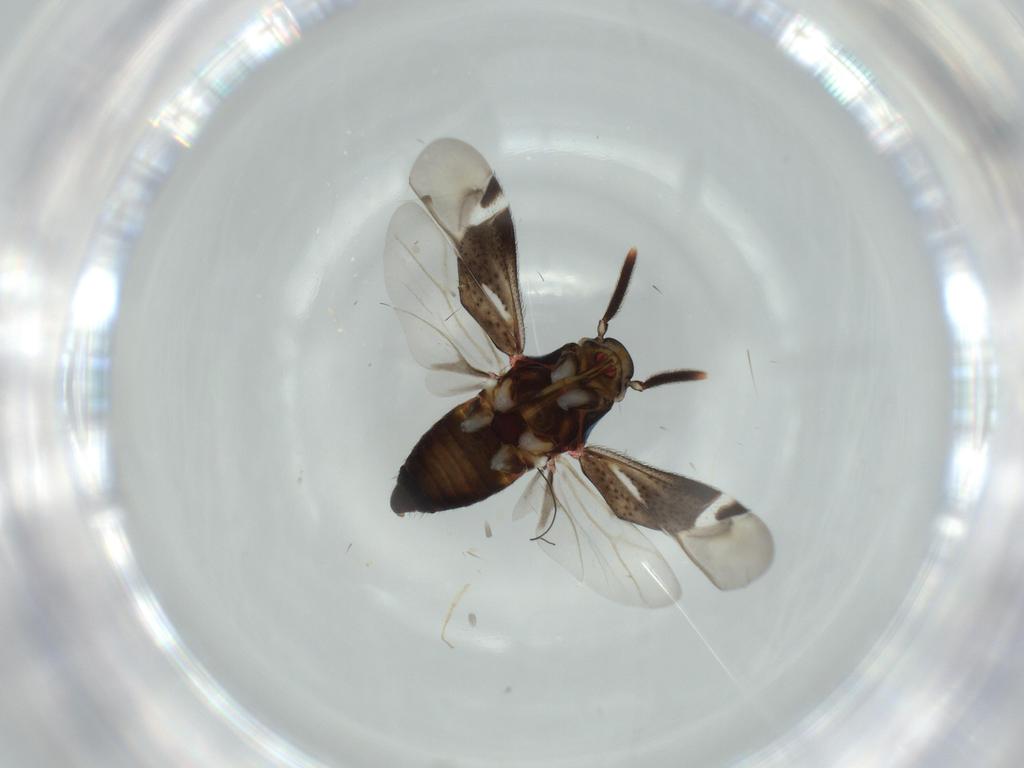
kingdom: Animalia
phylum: Arthropoda
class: Insecta
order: Hemiptera
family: Miridae
